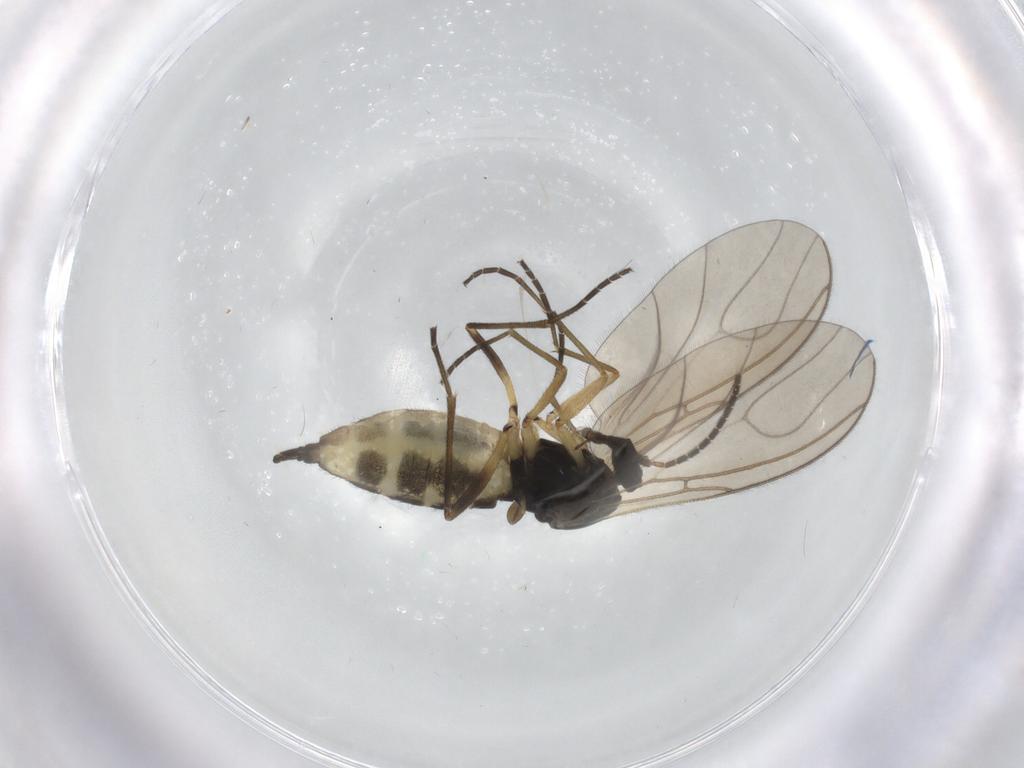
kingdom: Animalia
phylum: Arthropoda
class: Insecta
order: Diptera
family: Sciaridae
